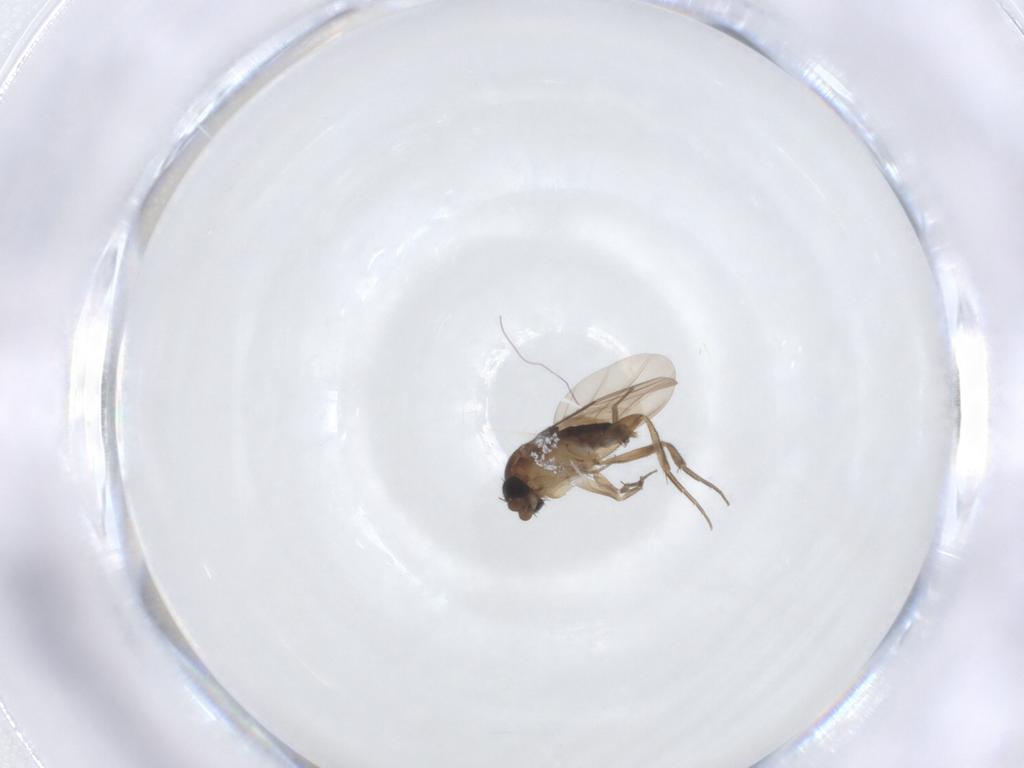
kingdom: Animalia
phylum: Arthropoda
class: Insecta
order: Diptera
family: Phoridae
